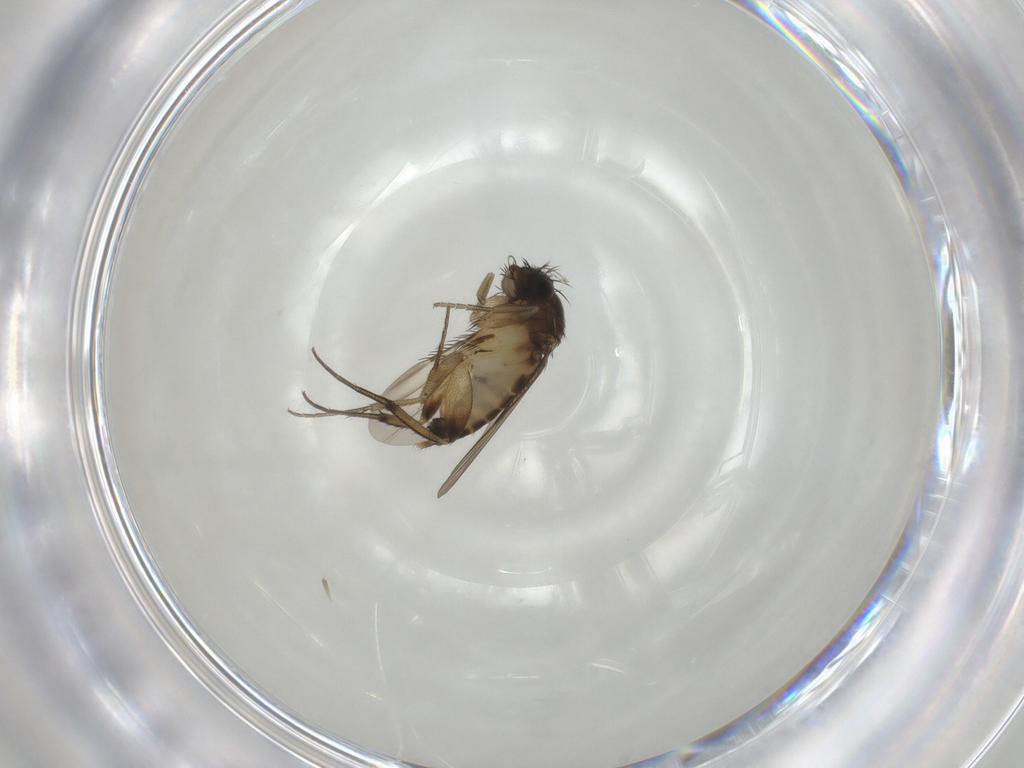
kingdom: Animalia
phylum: Arthropoda
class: Insecta
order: Diptera
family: Phoridae
